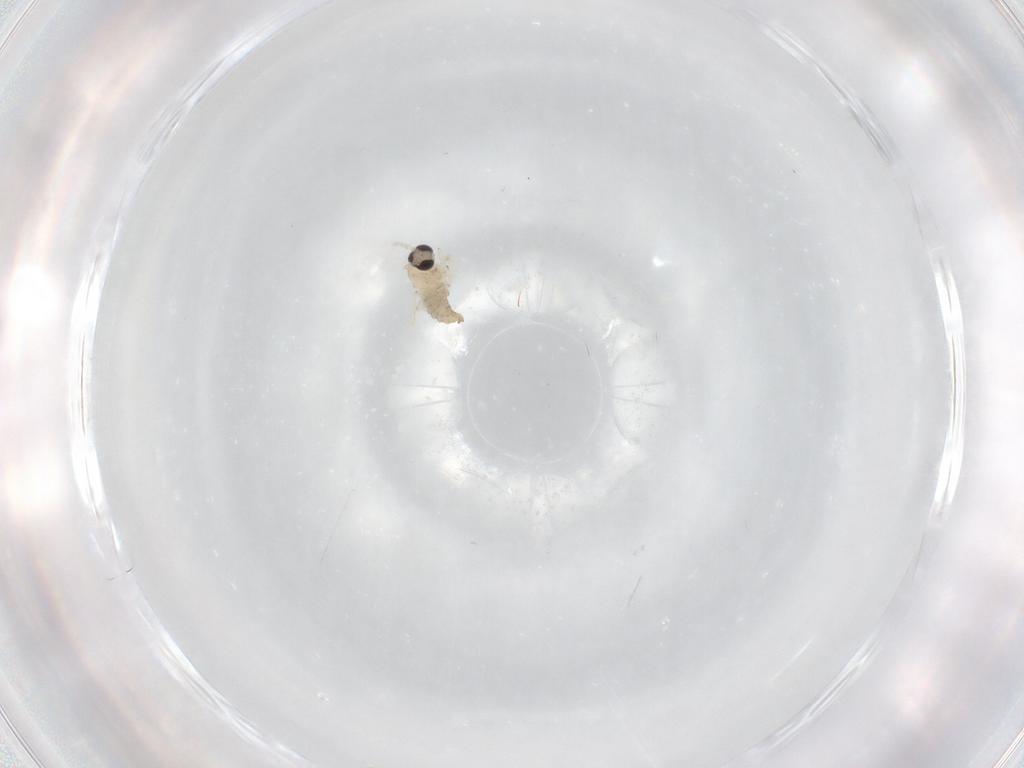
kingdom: Animalia
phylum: Arthropoda
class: Insecta
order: Diptera
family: Cecidomyiidae
